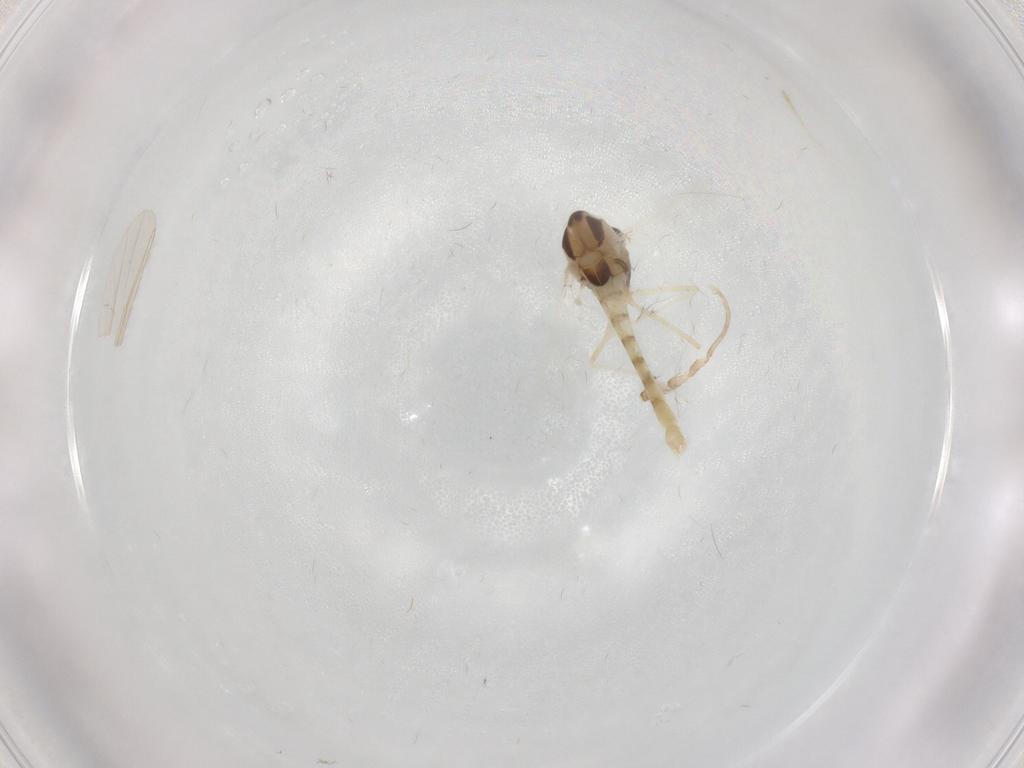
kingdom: Animalia
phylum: Arthropoda
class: Insecta
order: Diptera
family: Chironomidae
